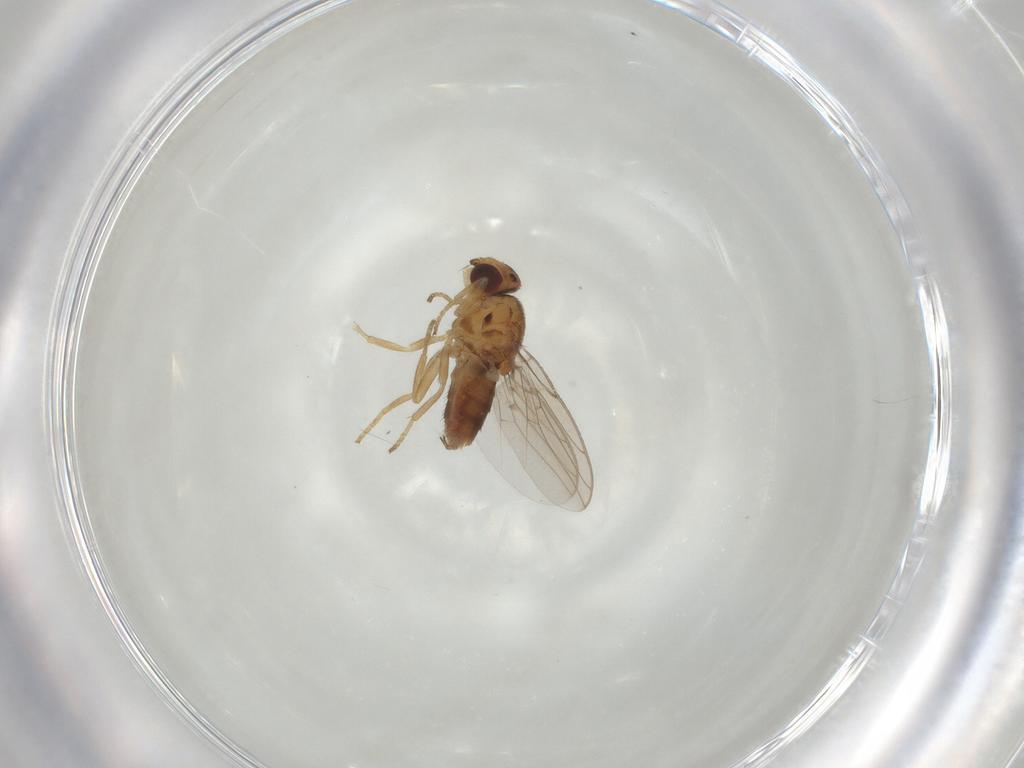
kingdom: Animalia
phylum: Arthropoda
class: Insecta
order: Diptera
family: Chloropidae
